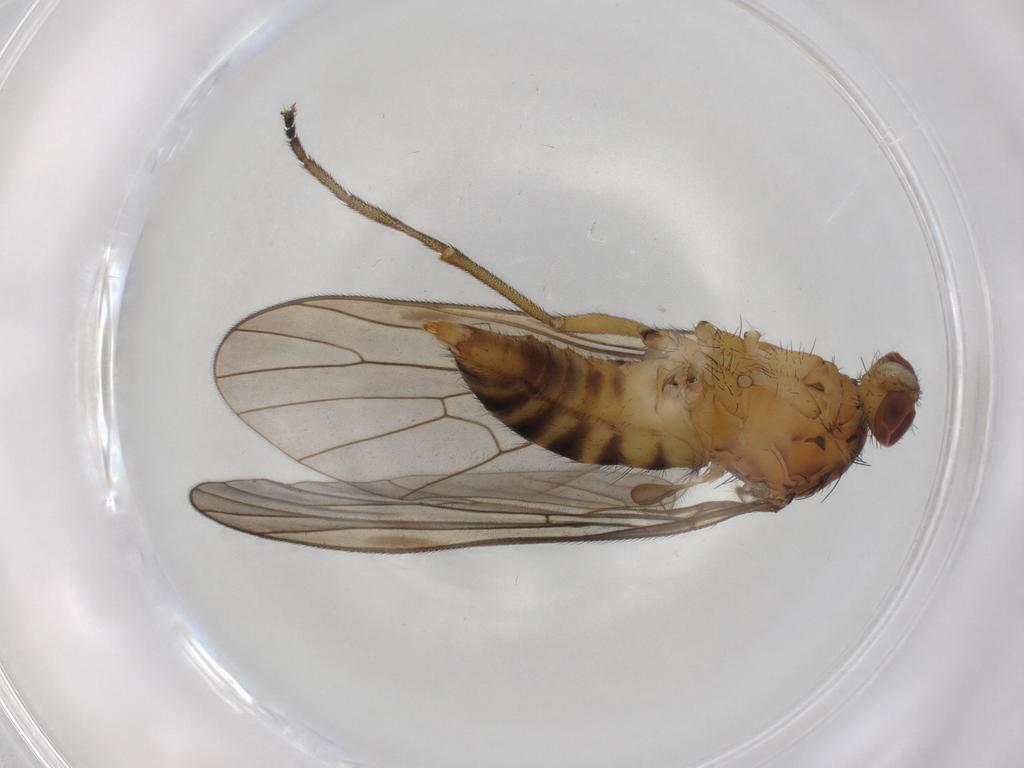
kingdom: Animalia
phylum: Arthropoda
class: Insecta
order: Diptera
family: Brachystomatidae
